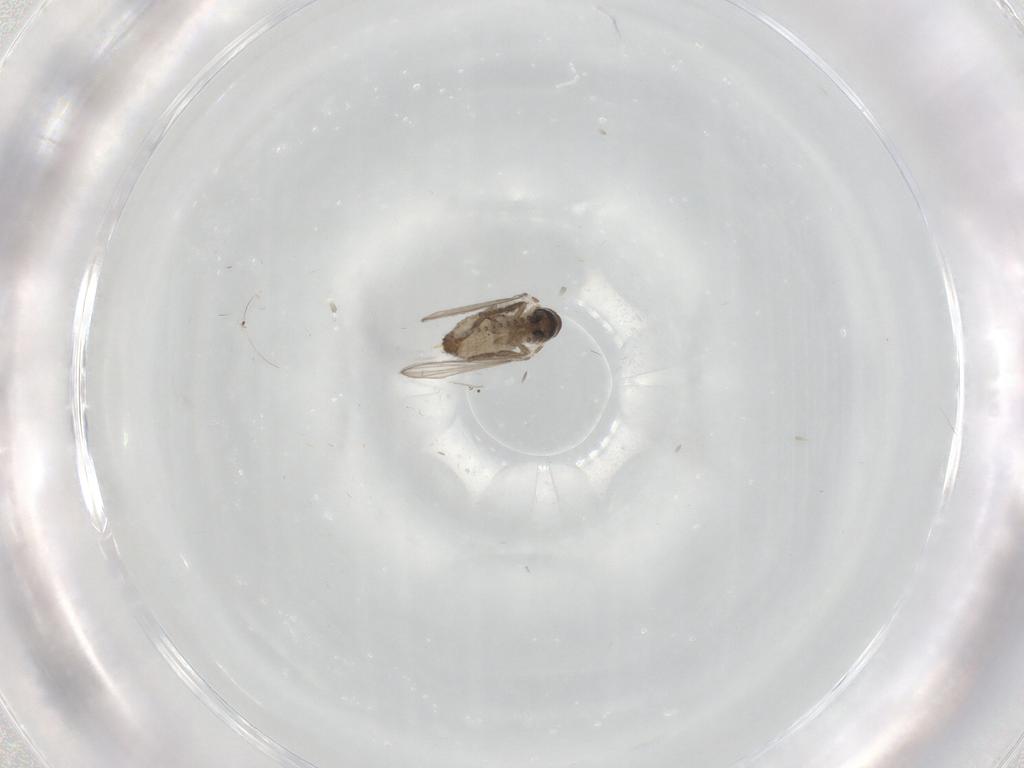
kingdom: Animalia
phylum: Arthropoda
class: Insecta
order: Diptera
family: Psychodidae
